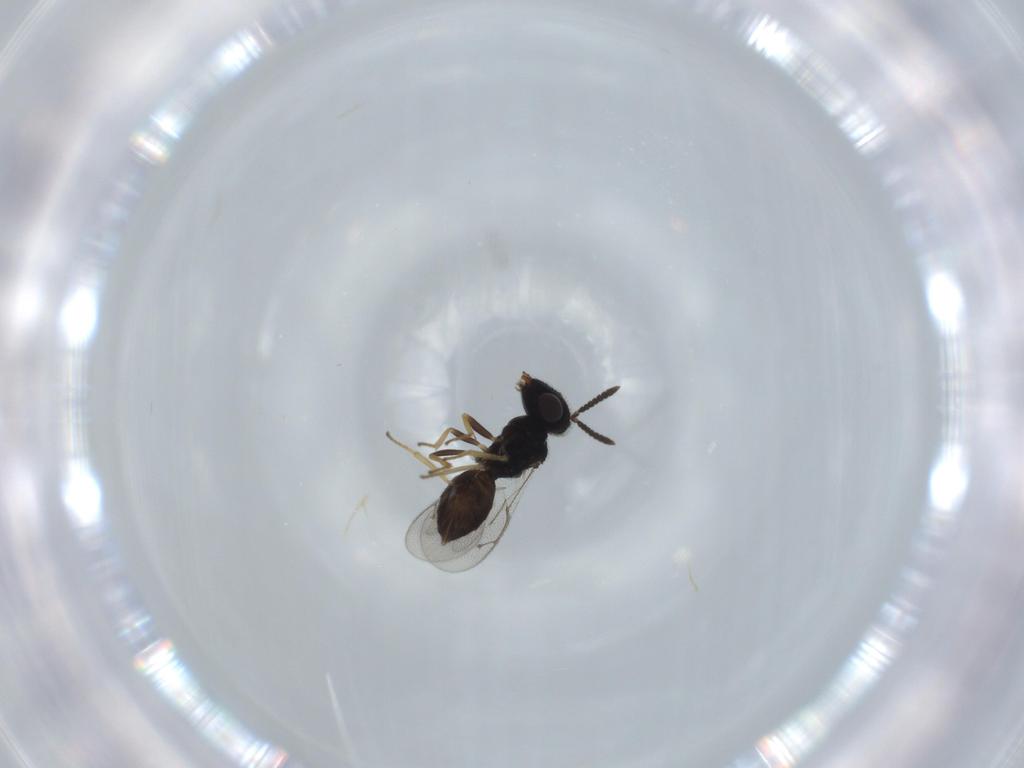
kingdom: Animalia
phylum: Arthropoda
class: Insecta
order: Hymenoptera
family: Pteromalidae
